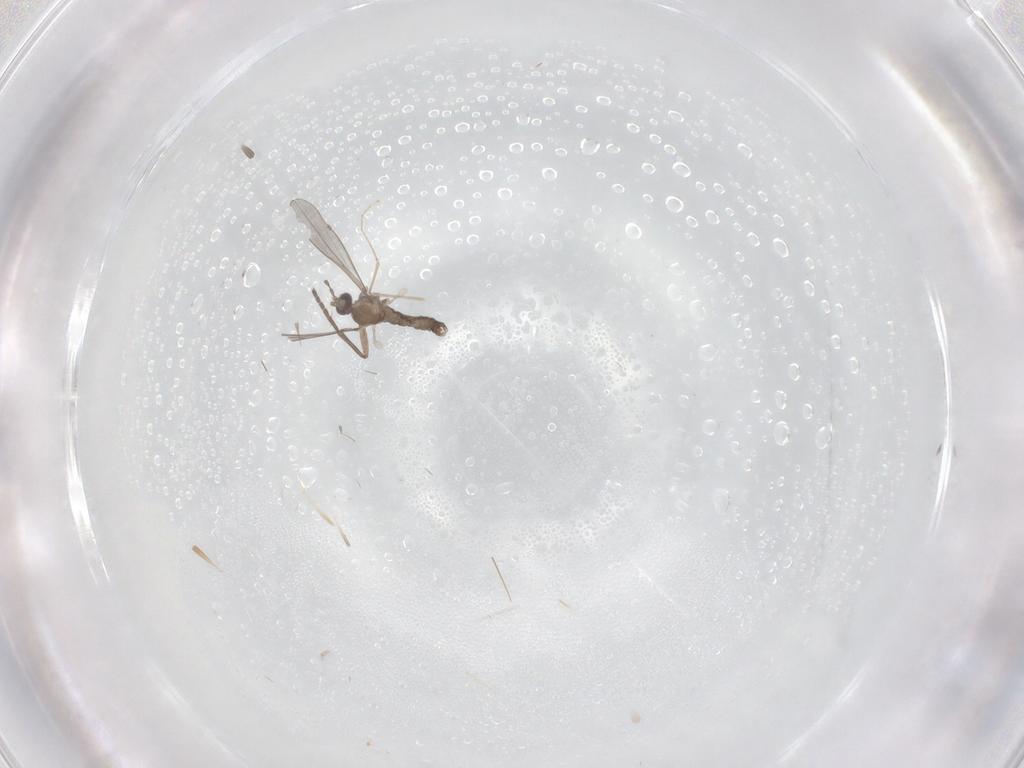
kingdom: Animalia
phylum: Arthropoda
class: Insecta
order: Diptera
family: Sciaridae
